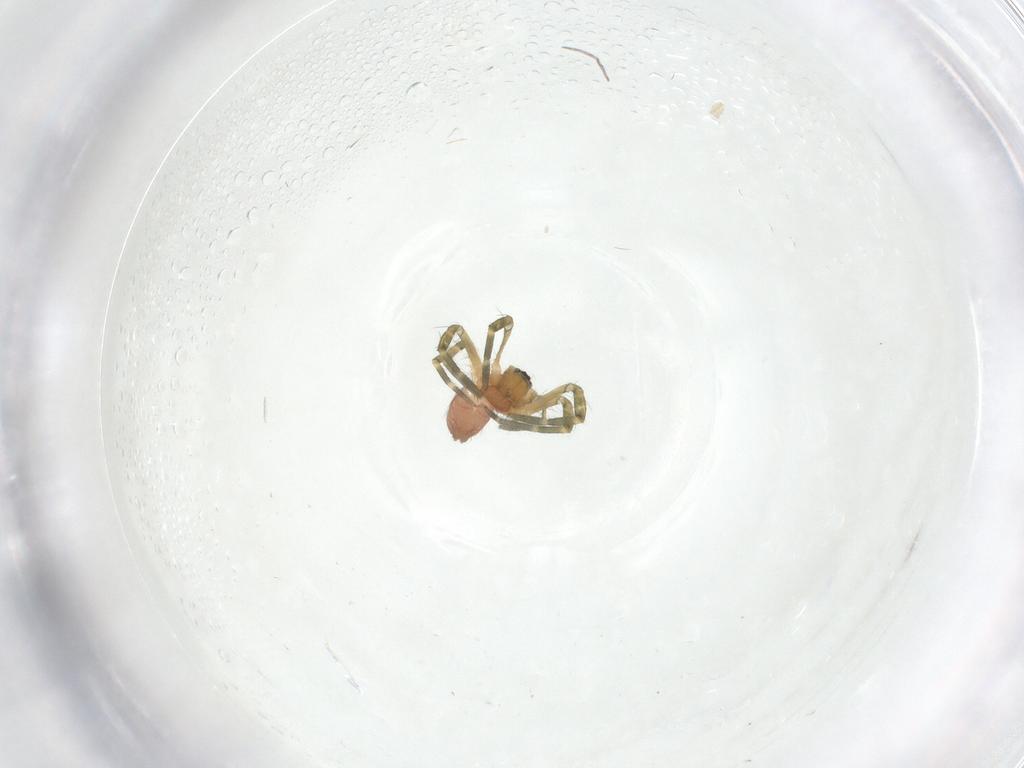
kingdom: Animalia
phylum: Arthropoda
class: Arachnida
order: Araneae
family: Linyphiidae
